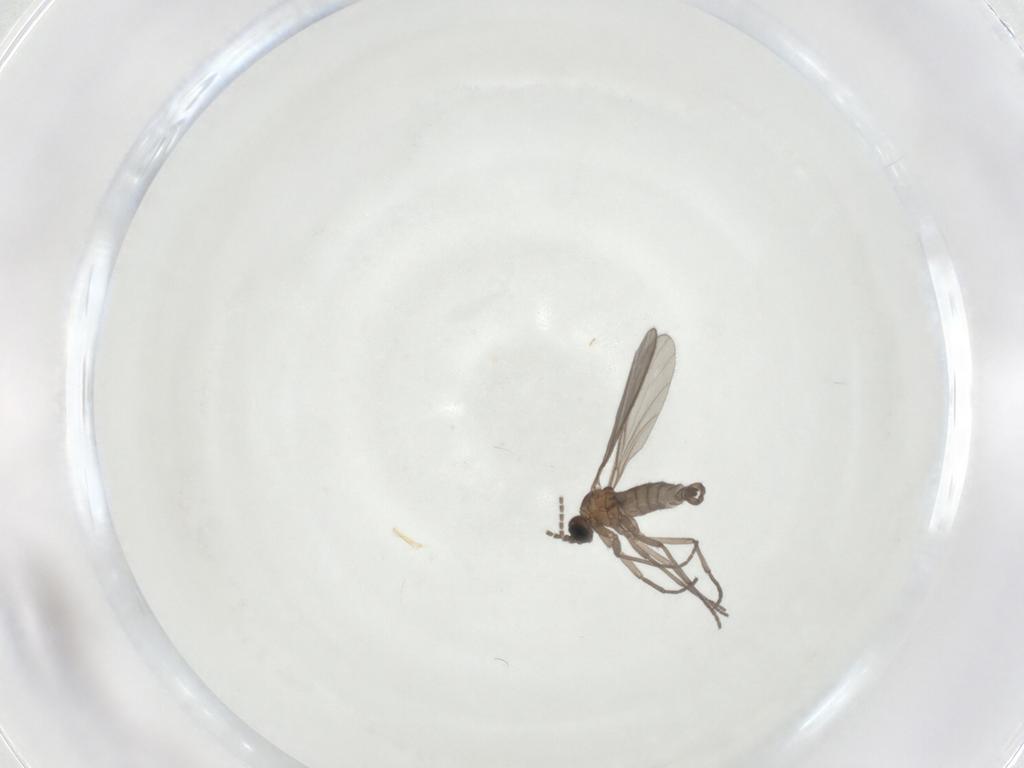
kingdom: Animalia
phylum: Arthropoda
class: Insecta
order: Diptera
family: Sciaridae
